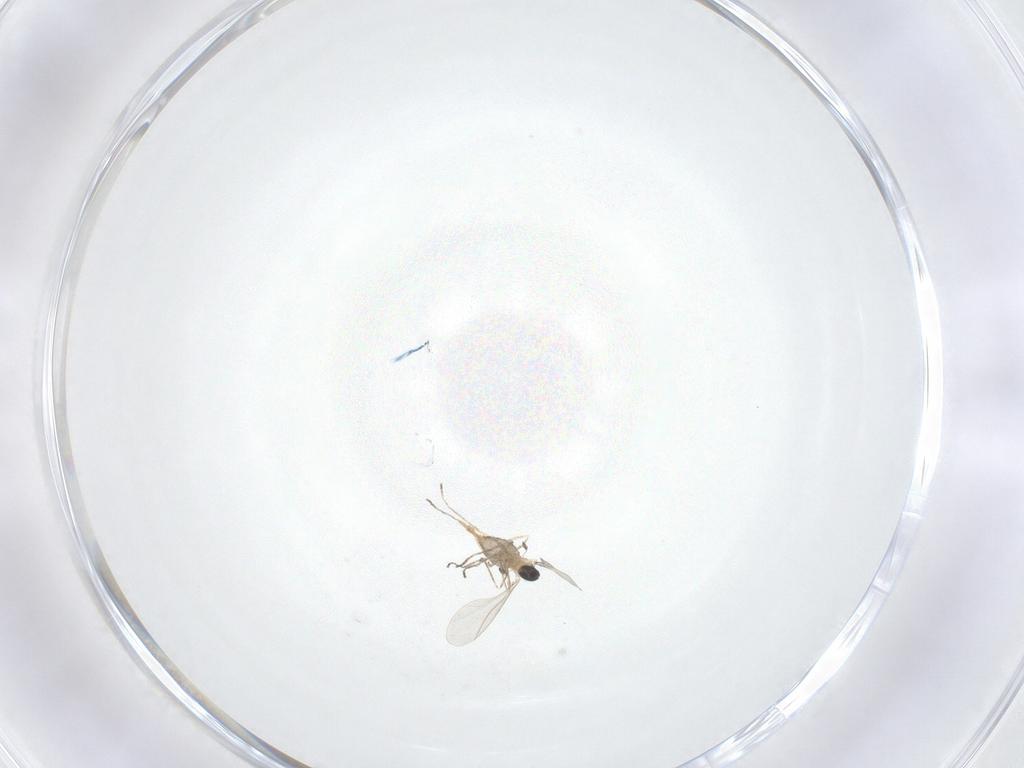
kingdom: Animalia
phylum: Arthropoda
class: Insecta
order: Diptera
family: Cecidomyiidae
